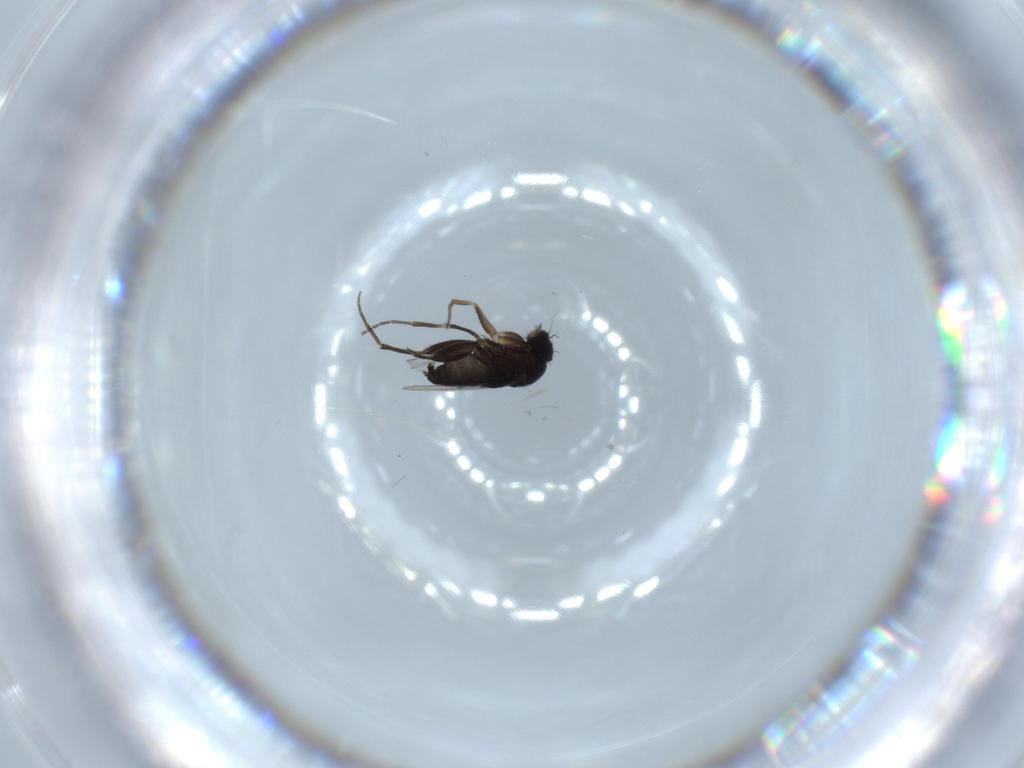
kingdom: Animalia
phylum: Arthropoda
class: Insecta
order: Diptera
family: Phoridae
